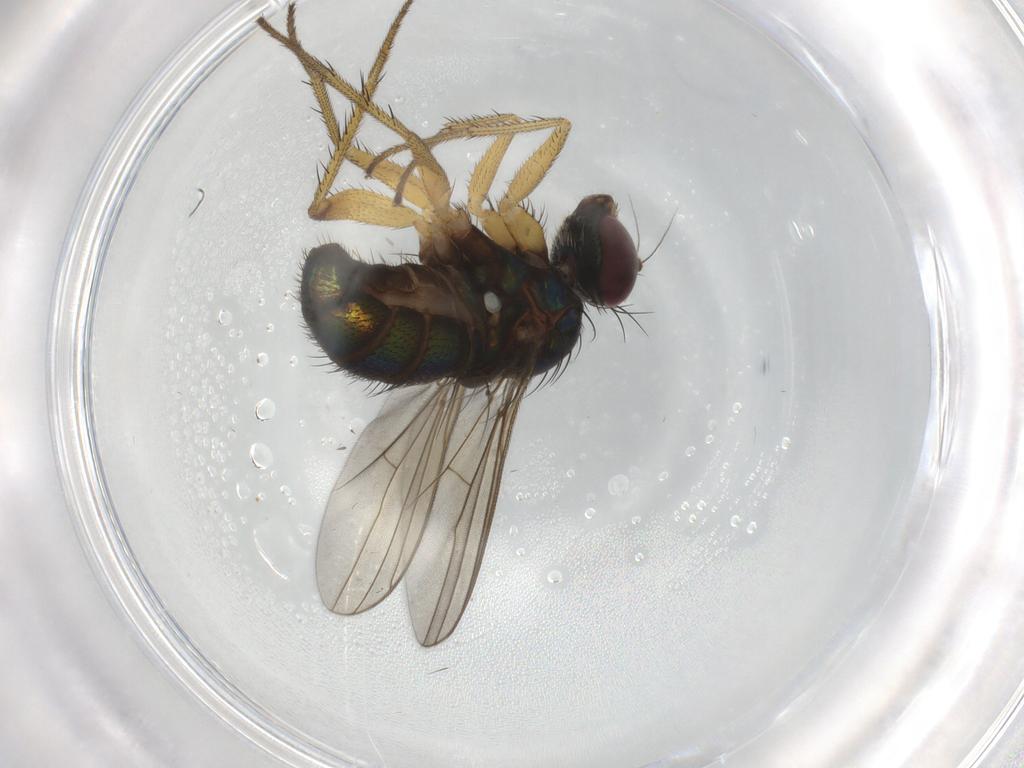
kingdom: Animalia
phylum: Arthropoda
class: Insecta
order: Diptera
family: Dolichopodidae
